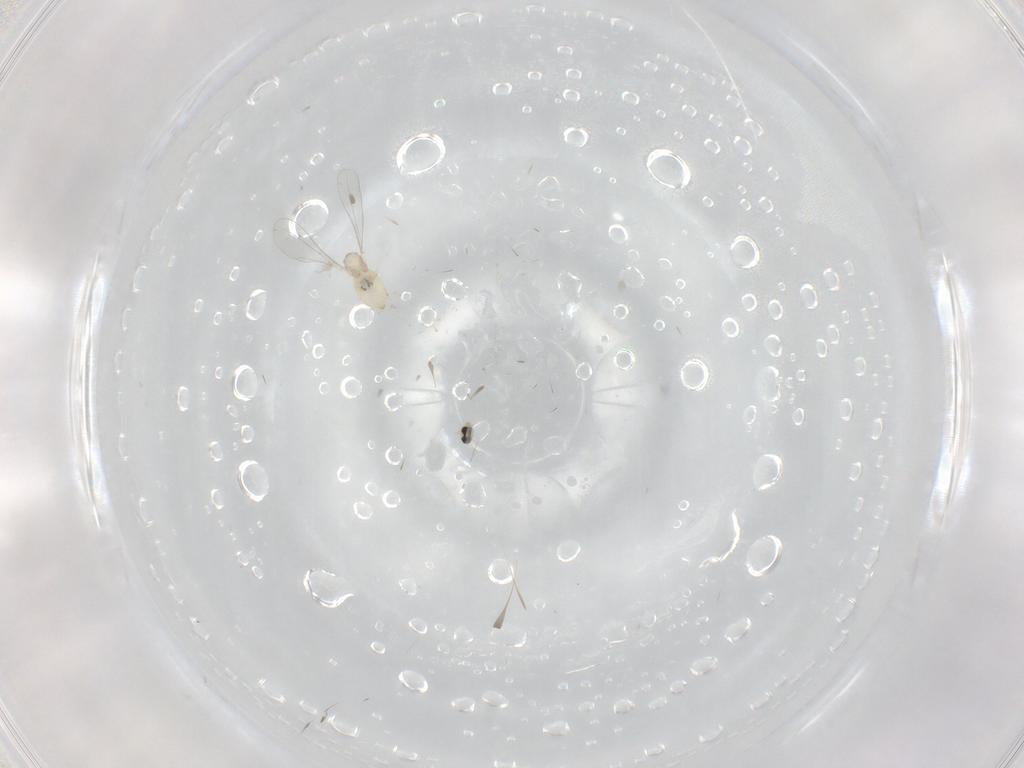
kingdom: Animalia
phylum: Arthropoda
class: Insecta
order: Diptera
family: Cecidomyiidae
